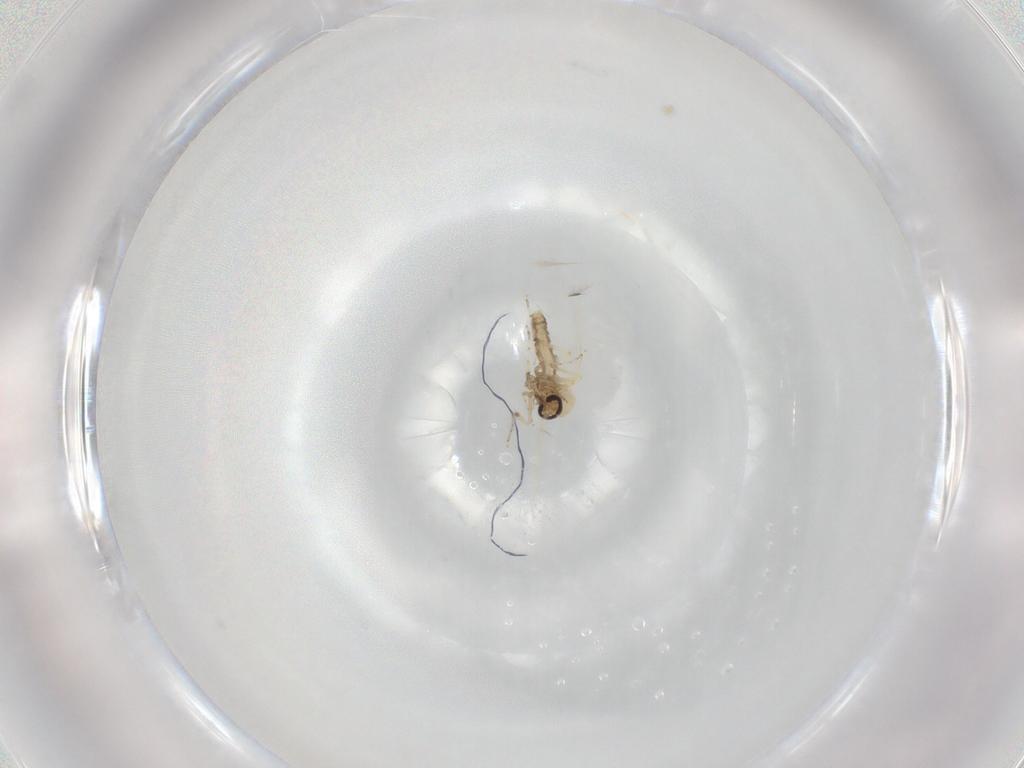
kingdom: Animalia
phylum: Arthropoda
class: Insecta
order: Diptera
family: Ceratopogonidae
